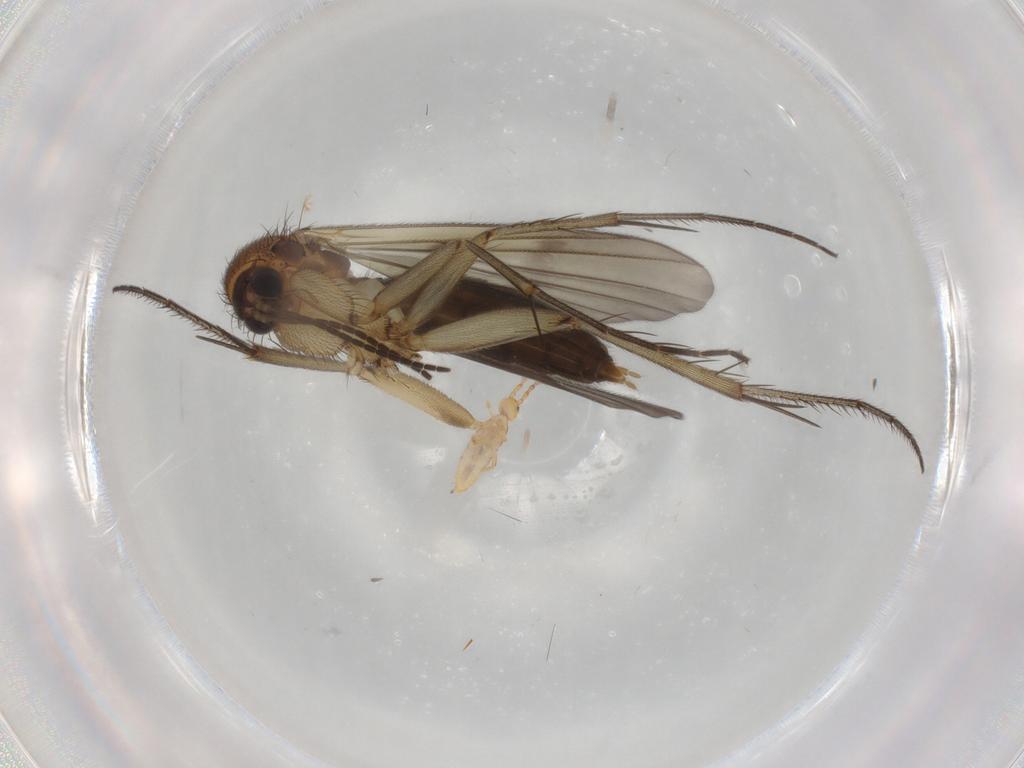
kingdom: Animalia
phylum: Arthropoda
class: Insecta
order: Diptera
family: Mycetophilidae
